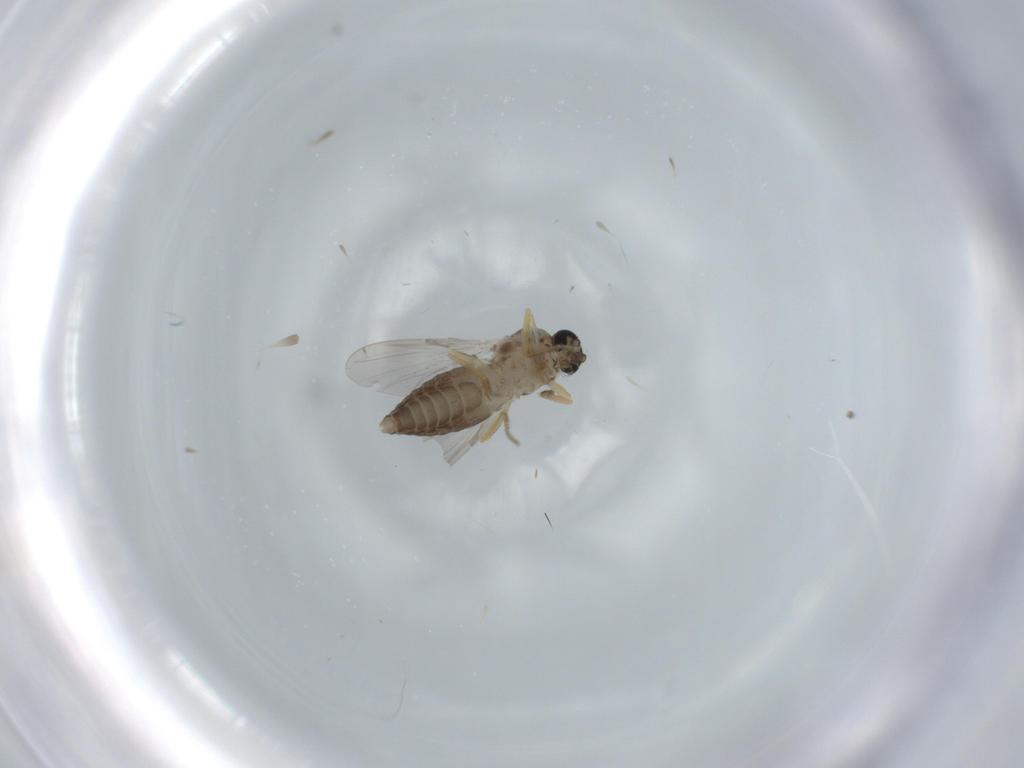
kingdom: Animalia
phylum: Arthropoda
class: Insecta
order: Diptera
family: Ceratopogonidae
